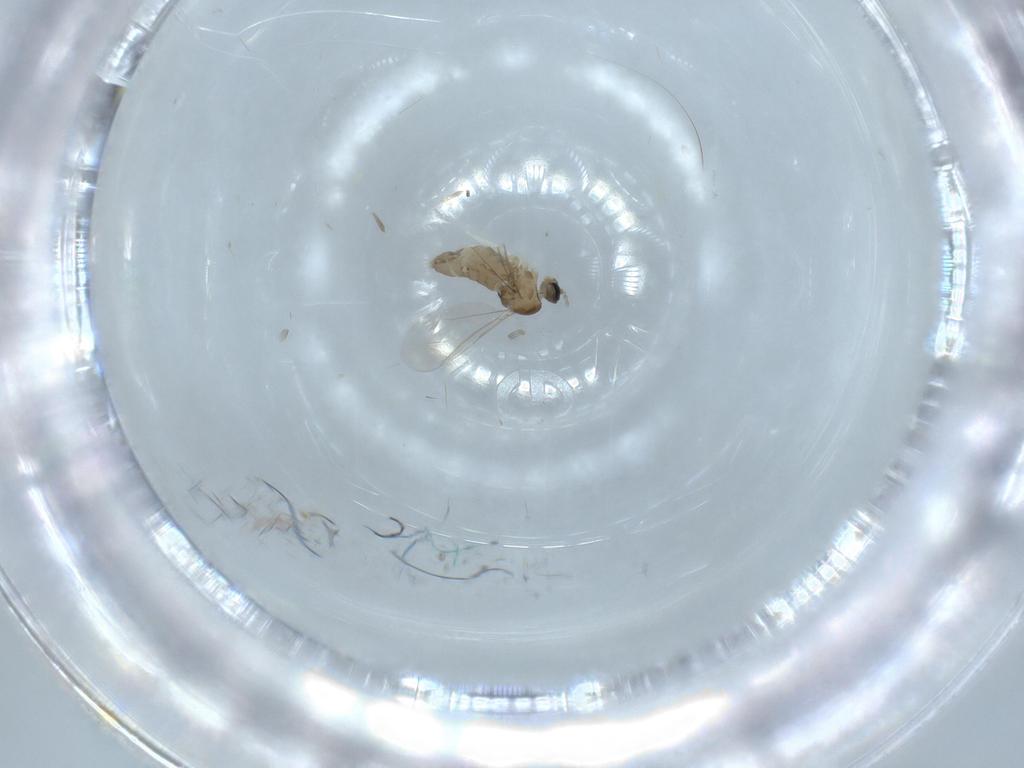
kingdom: Animalia
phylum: Arthropoda
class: Insecta
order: Diptera
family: Cecidomyiidae
